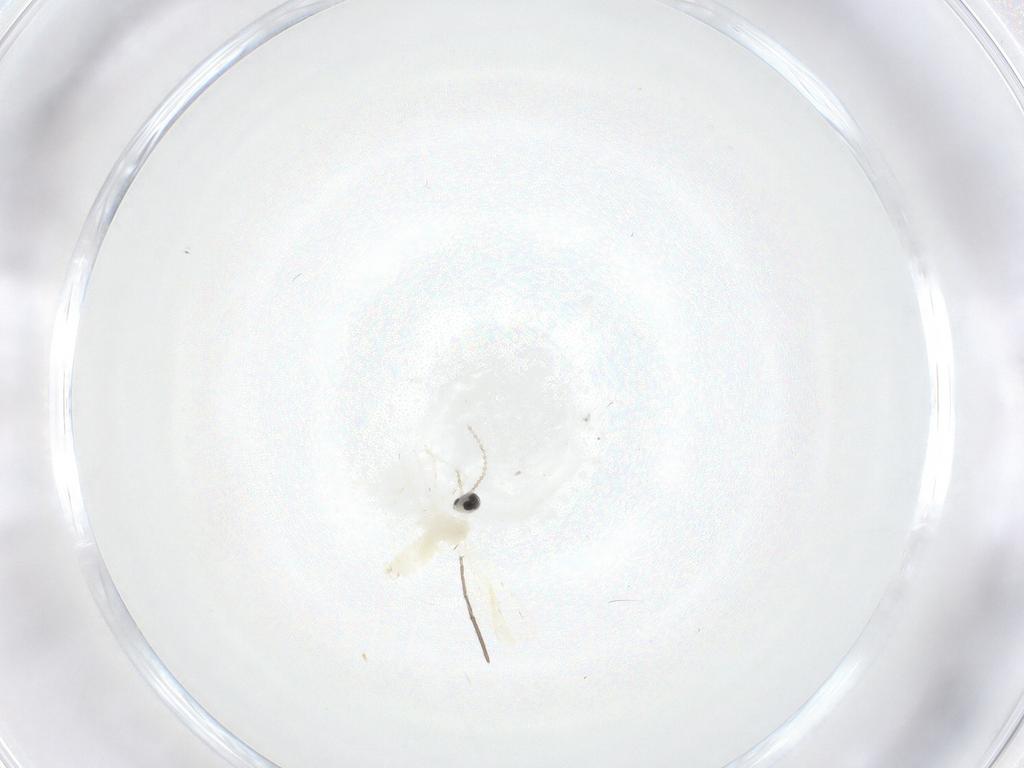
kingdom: Animalia
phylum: Arthropoda
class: Insecta
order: Diptera
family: Cecidomyiidae
